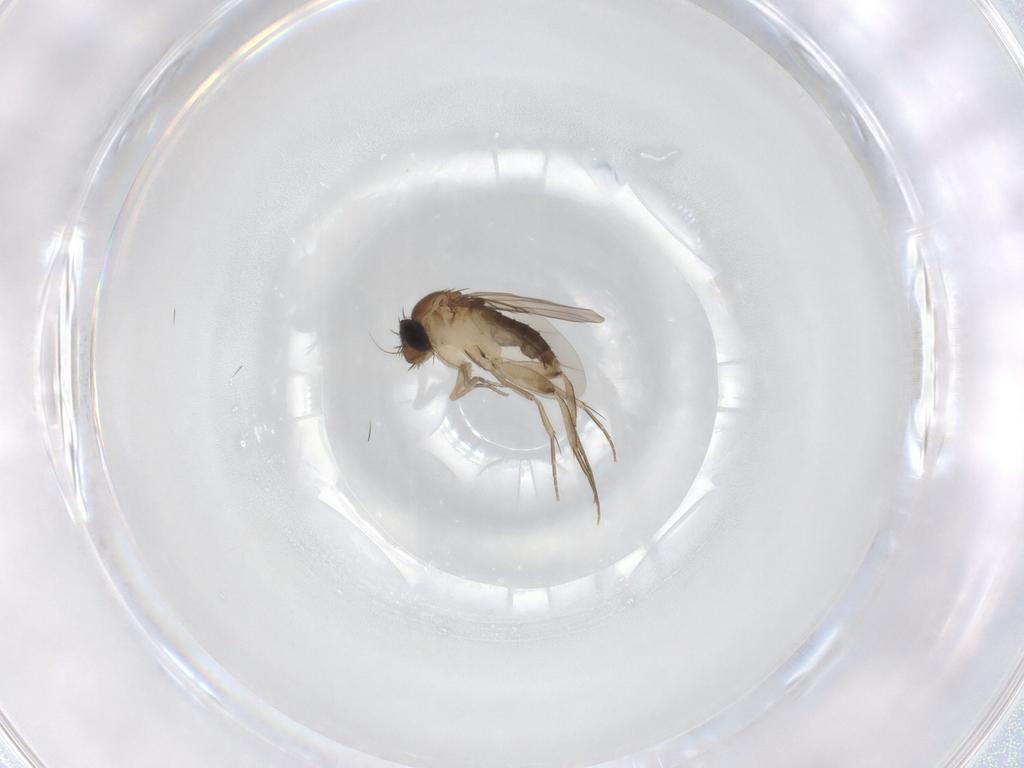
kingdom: Animalia
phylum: Arthropoda
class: Insecta
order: Diptera
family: Phoridae
